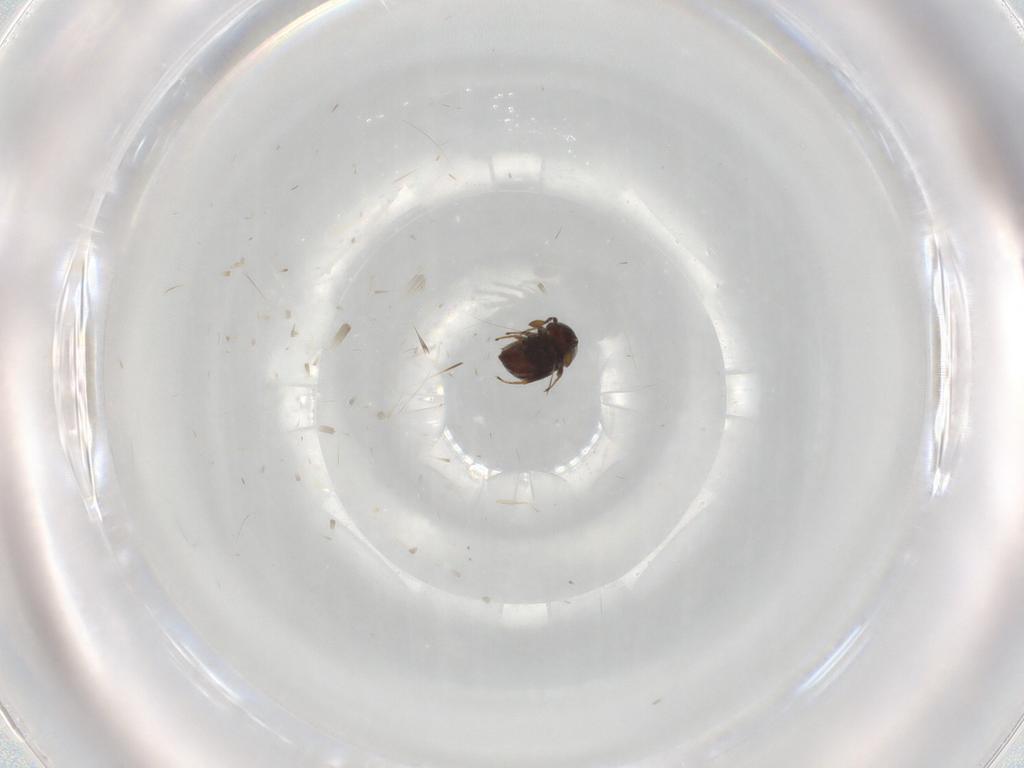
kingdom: Animalia
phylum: Arthropoda
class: Insecta
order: Hymenoptera
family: Scelionidae
